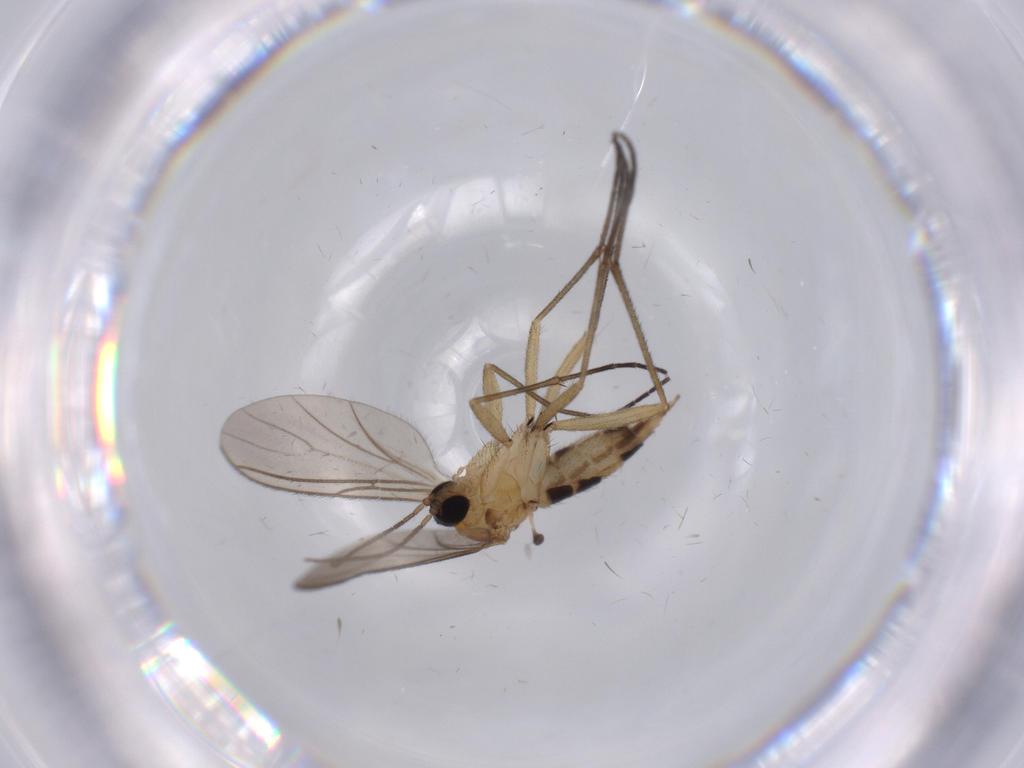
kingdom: Animalia
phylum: Arthropoda
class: Insecta
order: Diptera
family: Ceratopogonidae
